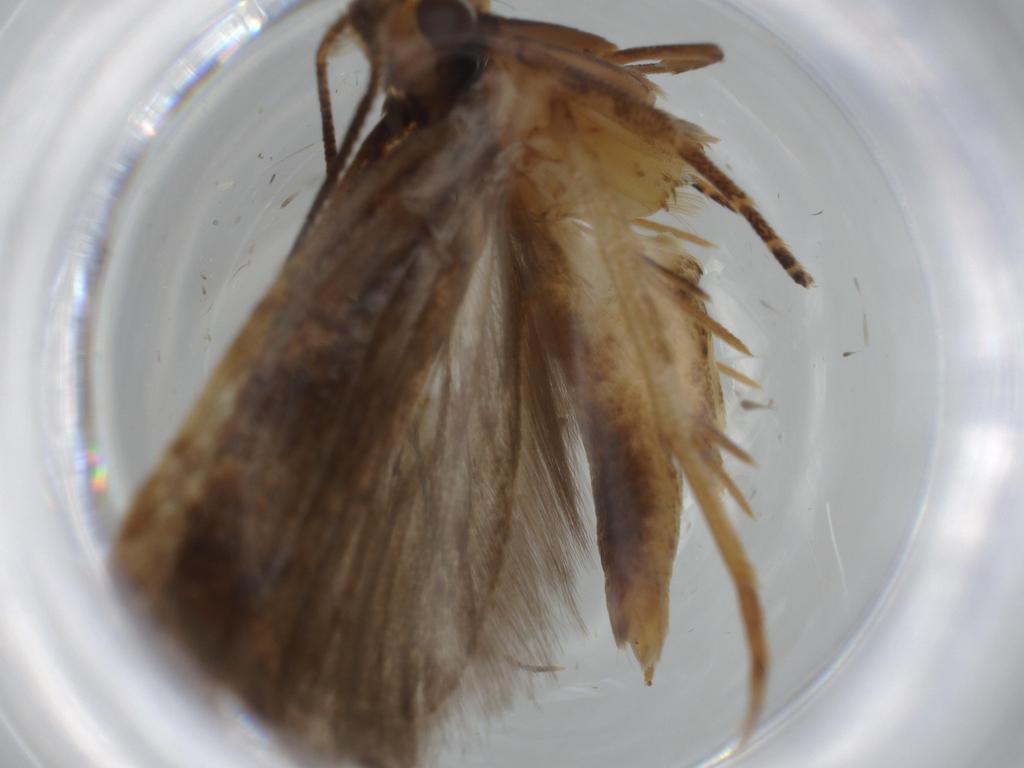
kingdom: Animalia
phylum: Arthropoda
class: Insecta
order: Lepidoptera
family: Gelechiidae
